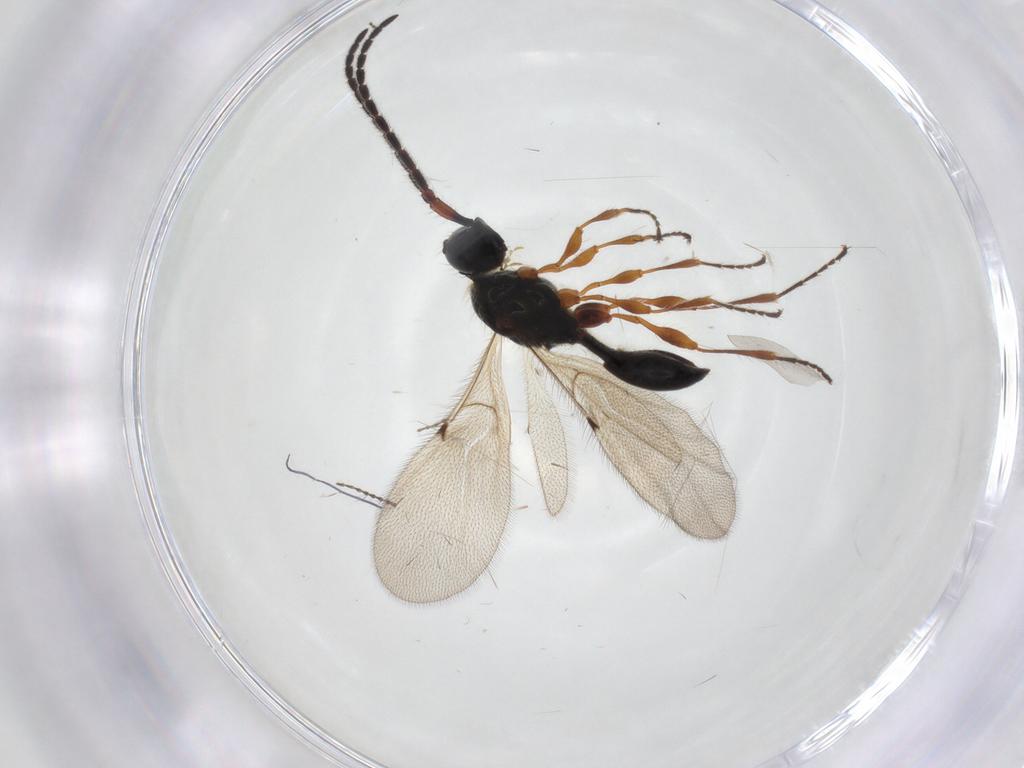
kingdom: Animalia
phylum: Arthropoda
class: Insecta
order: Hymenoptera
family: Diapriidae
